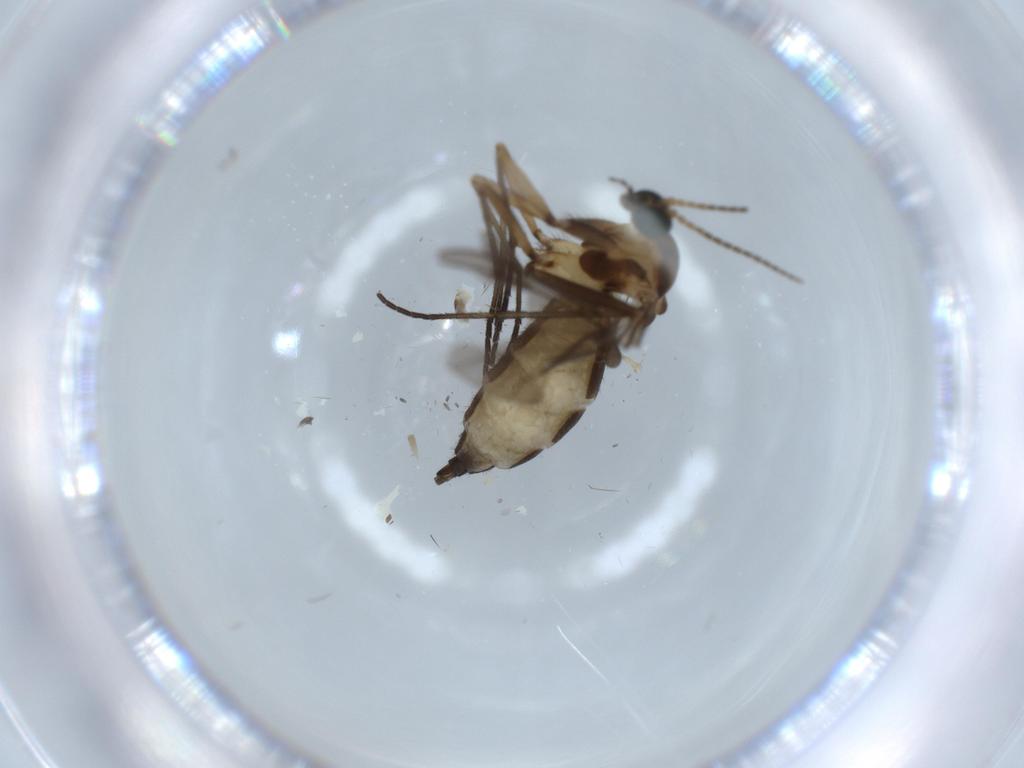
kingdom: Animalia
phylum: Arthropoda
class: Insecta
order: Diptera
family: Sciaridae
